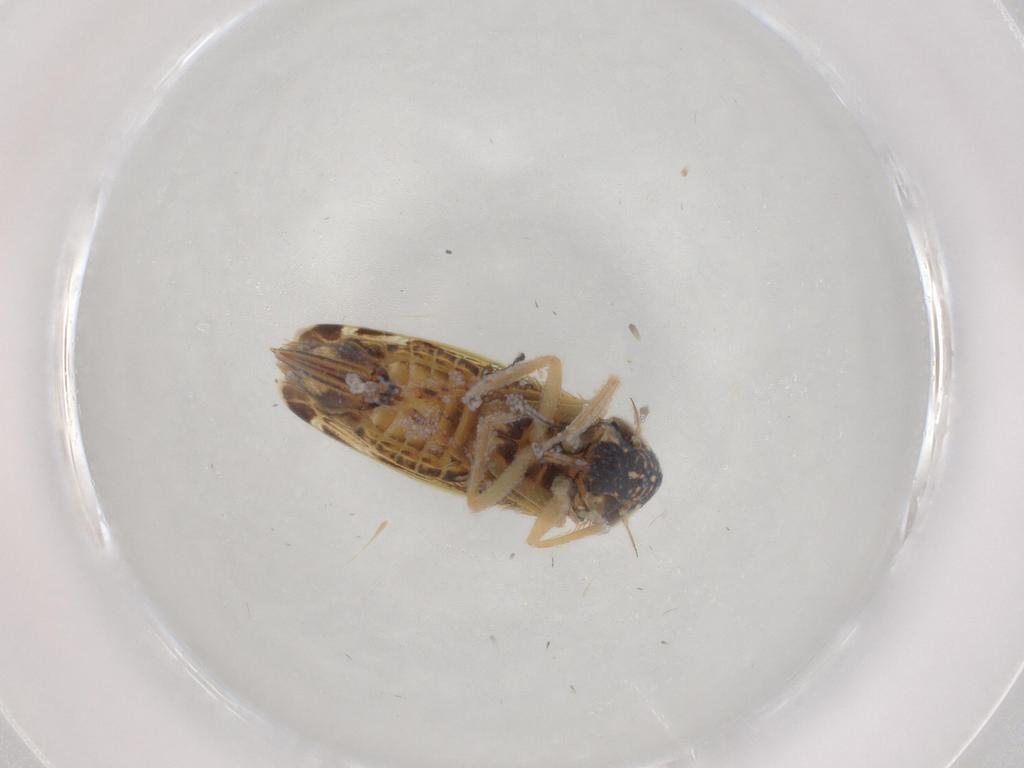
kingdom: Animalia
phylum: Arthropoda
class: Insecta
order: Hemiptera
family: Cicadellidae
